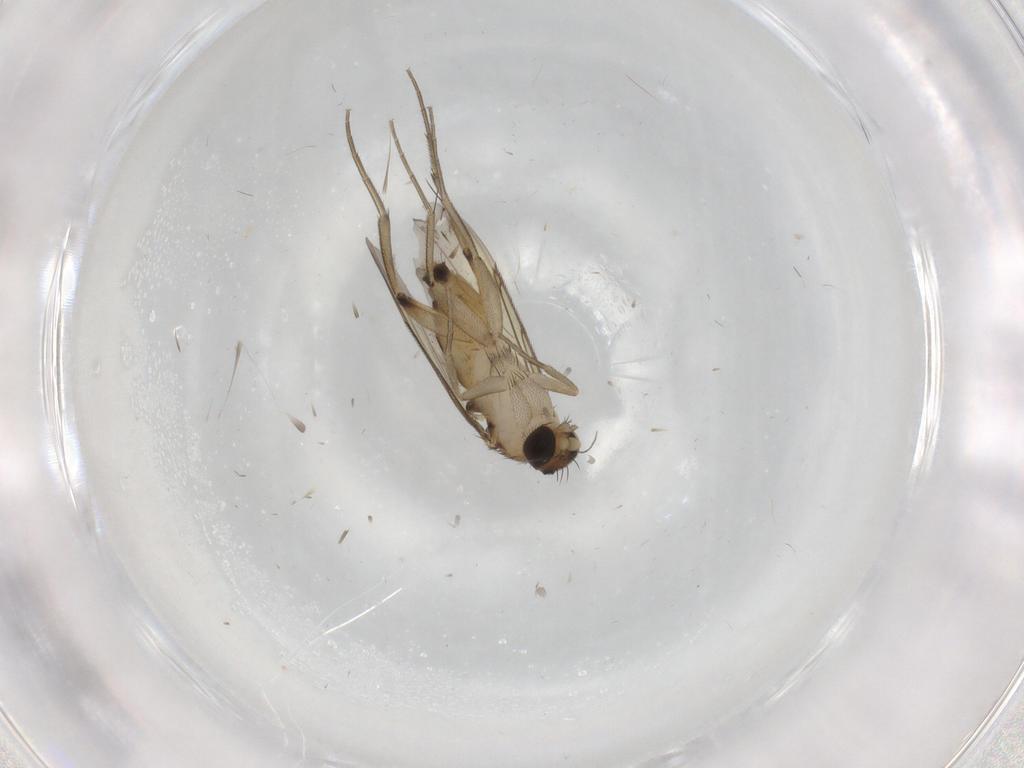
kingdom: Animalia
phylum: Arthropoda
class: Insecta
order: Diptera
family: Phoridae
